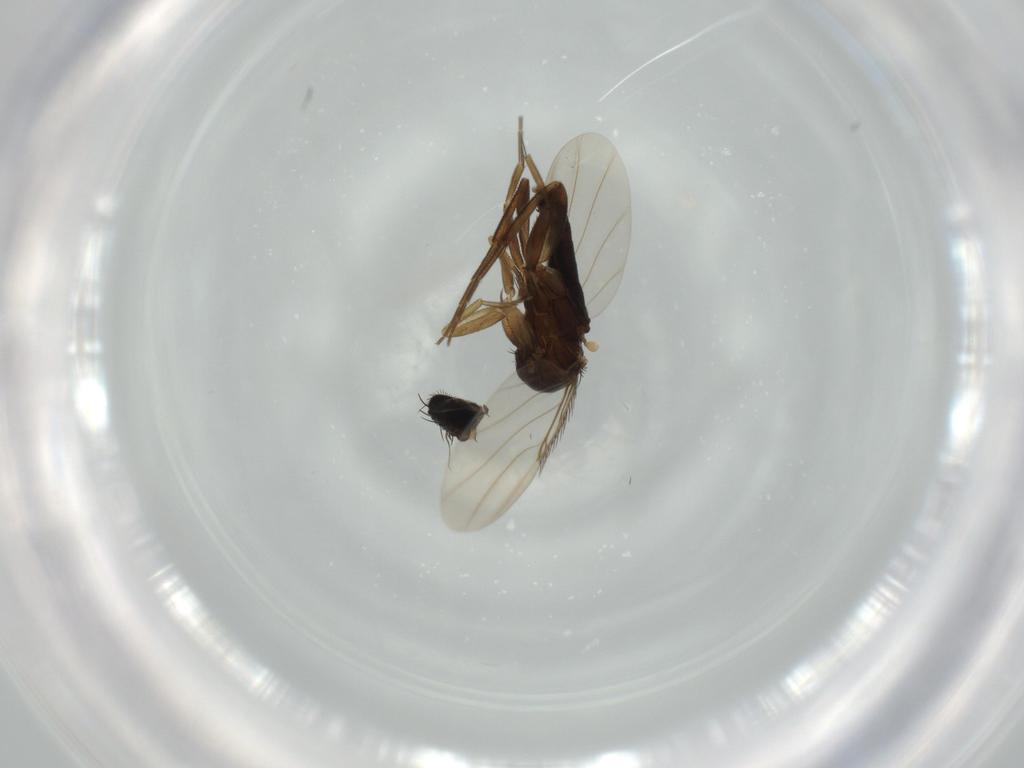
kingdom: Animalia
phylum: Arthropoda
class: Insecta
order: Diptera
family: Phoridae
